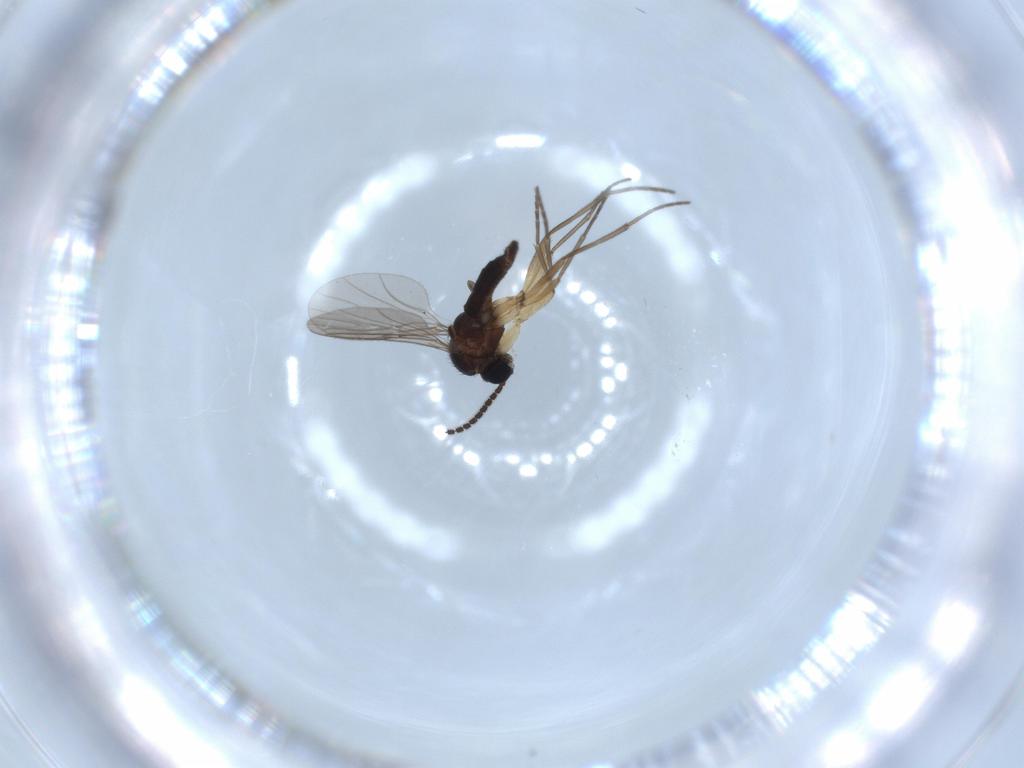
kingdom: Animalia
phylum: Arthropoda
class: Insecta
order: Diptera
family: Sciaridae
